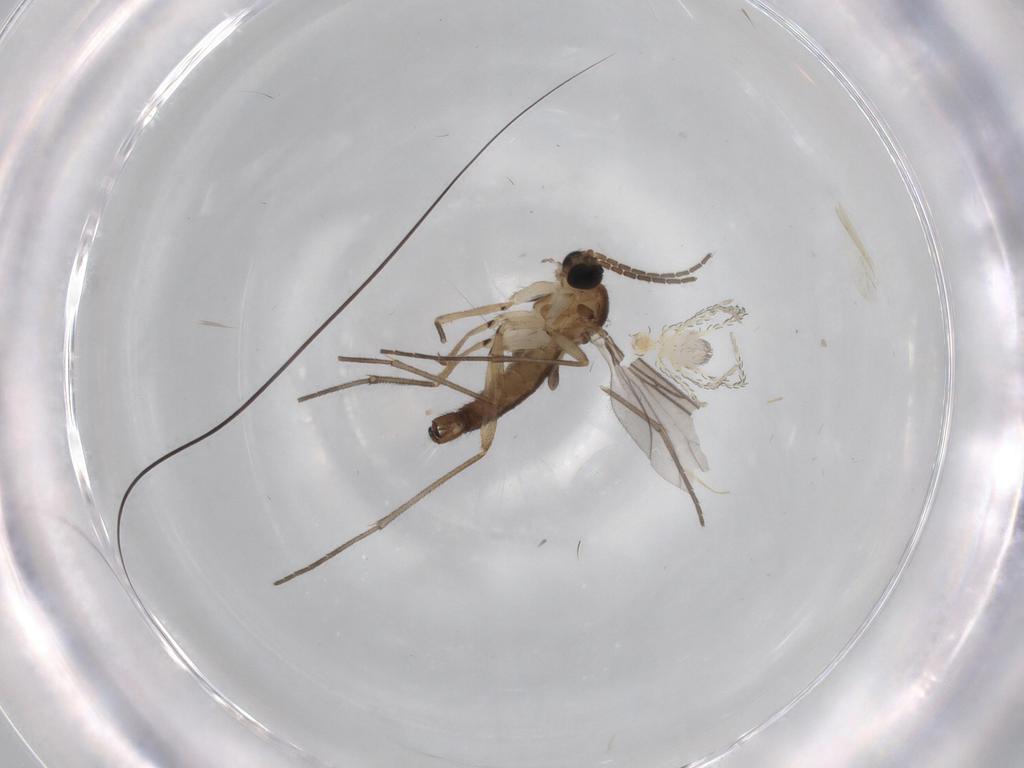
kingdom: Animalia
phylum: Arthropoda
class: Insecta
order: Diptera
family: Sciaridae
